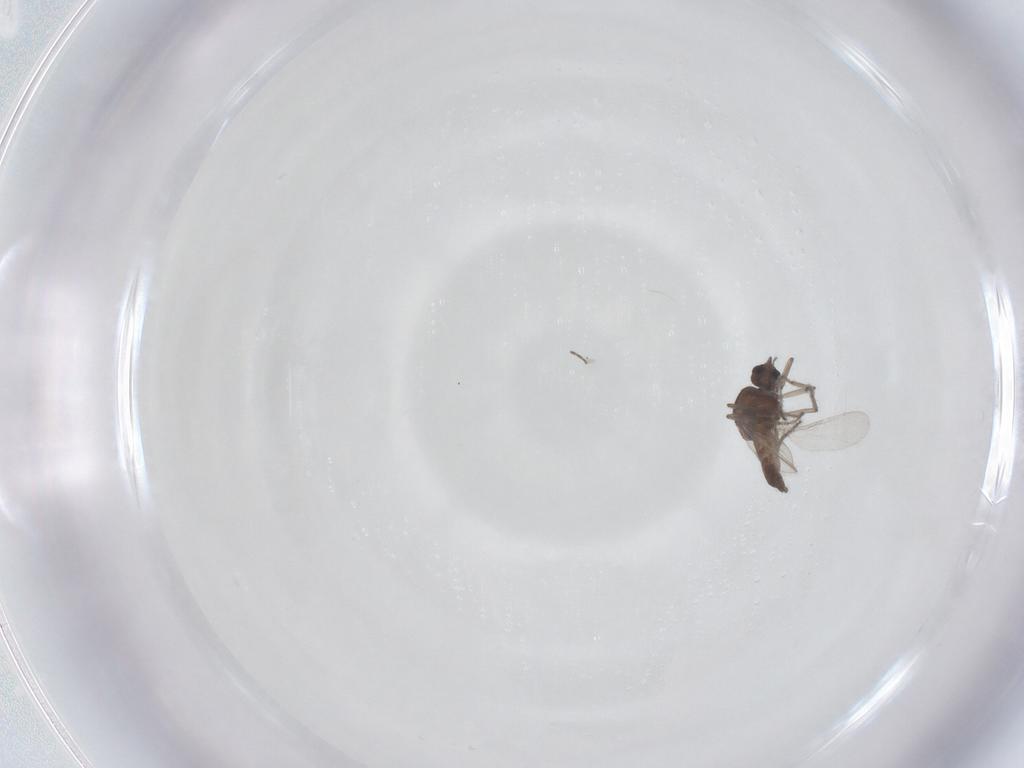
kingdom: Animalia
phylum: Arthropoda
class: Insecta
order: Diptera
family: Ceratopogonidae
